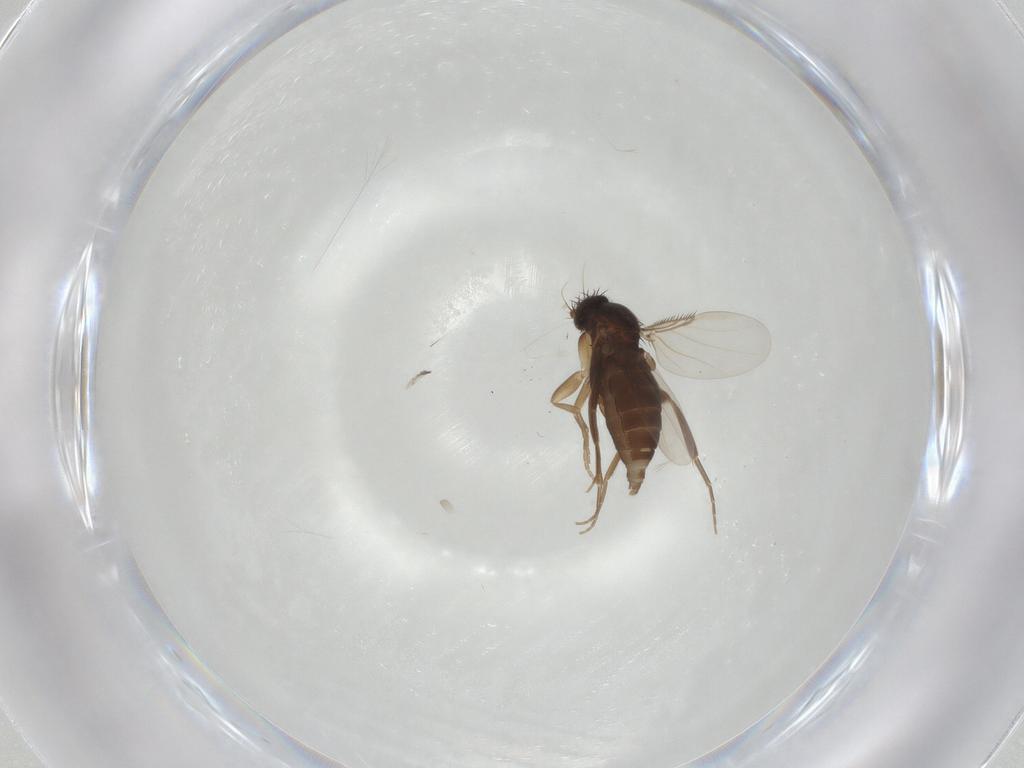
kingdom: Animalia
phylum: Arthropoda
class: Insecta
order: Diptera
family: Phoridae
